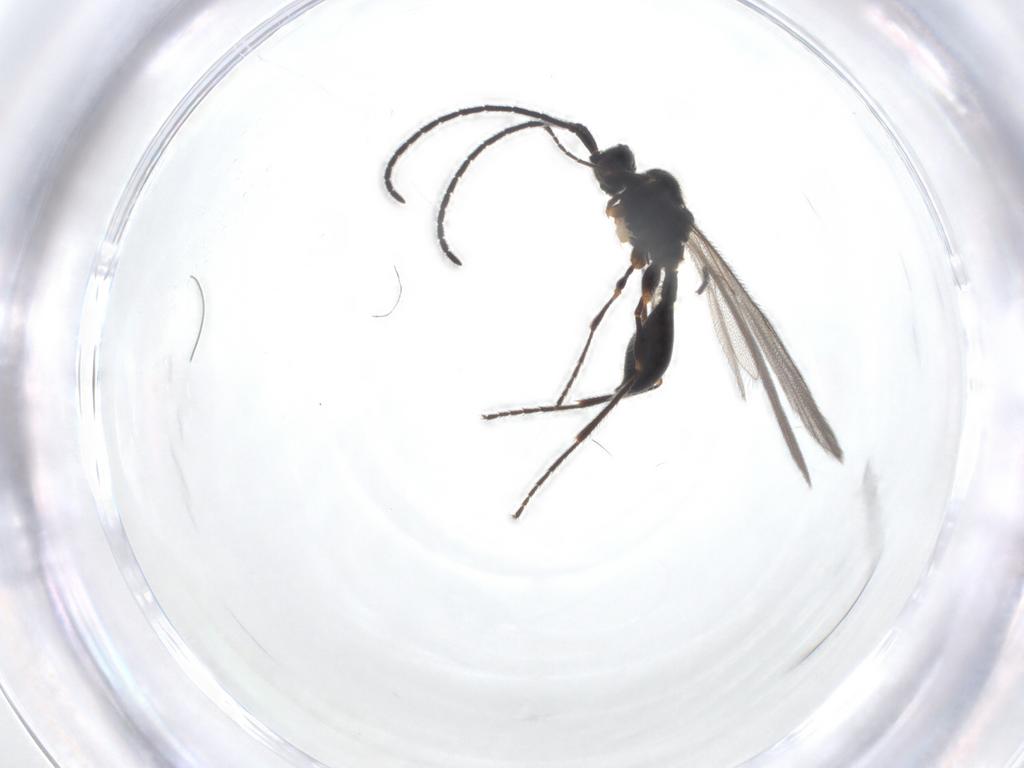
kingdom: Animalia
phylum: Arthropoda
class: Insecta
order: Hymenoptera
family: Diapriidae
